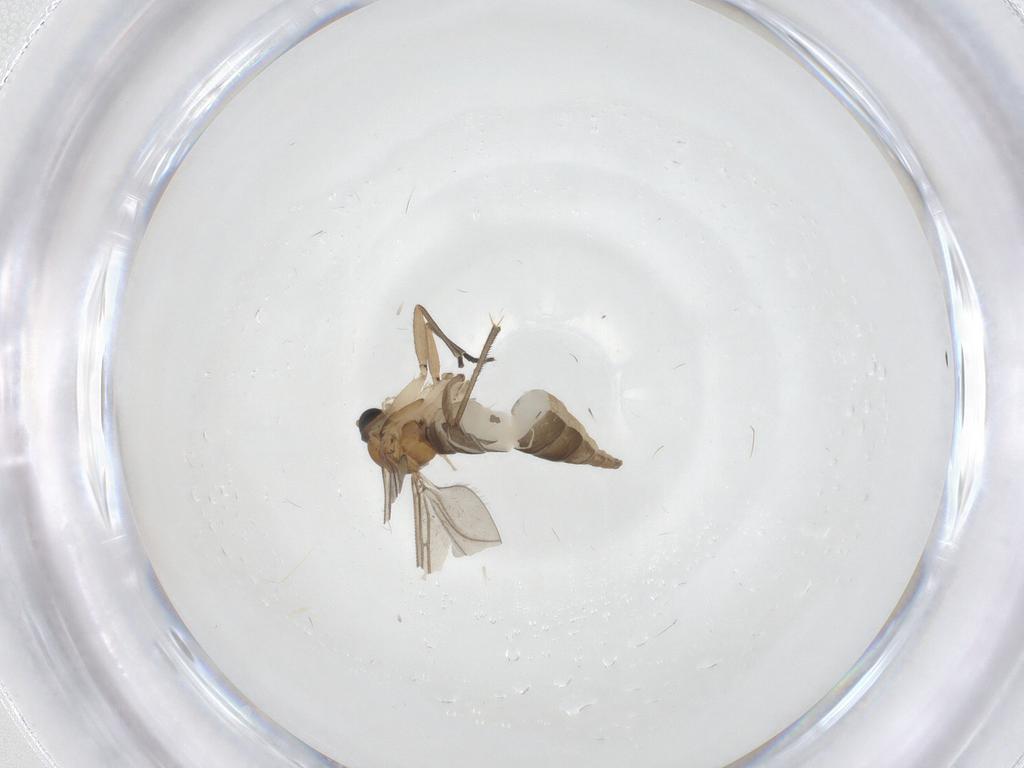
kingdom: Animalia
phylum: Arthropoda
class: Insecta
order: Diptera
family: Sciaridae
